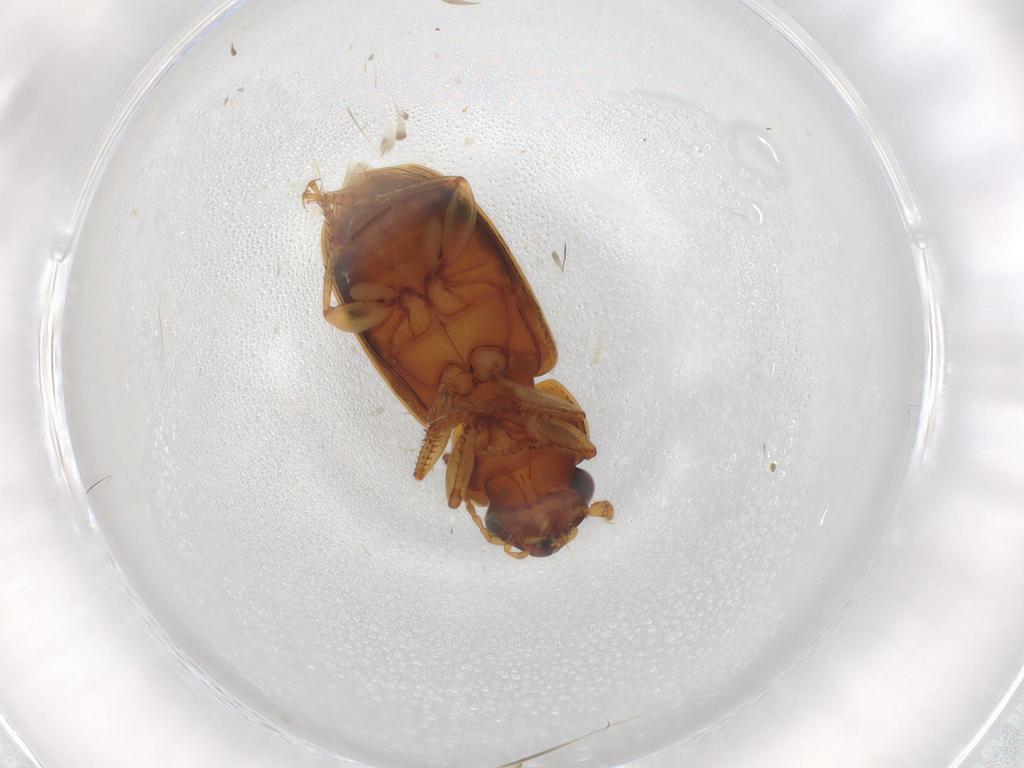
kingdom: Animalia
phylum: Arthropoda
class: Insecta
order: Coleoptera
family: Carabidae
